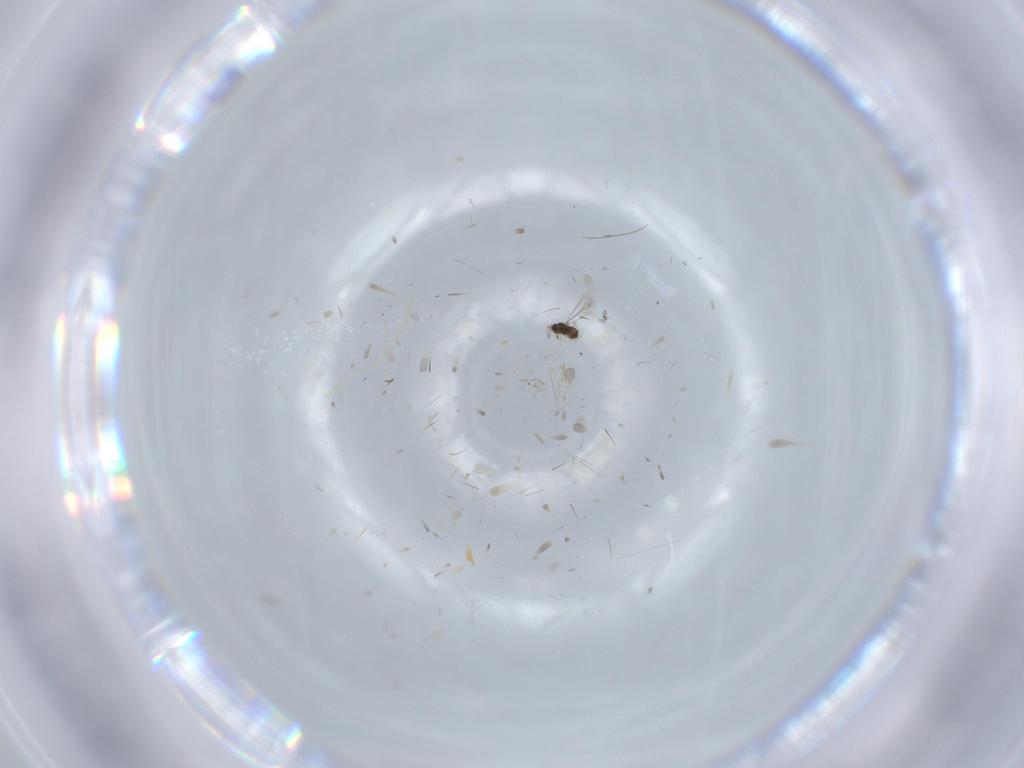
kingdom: Animalia
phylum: Arthropoda
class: Insecta
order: Hymenoptera
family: Mymaridae
